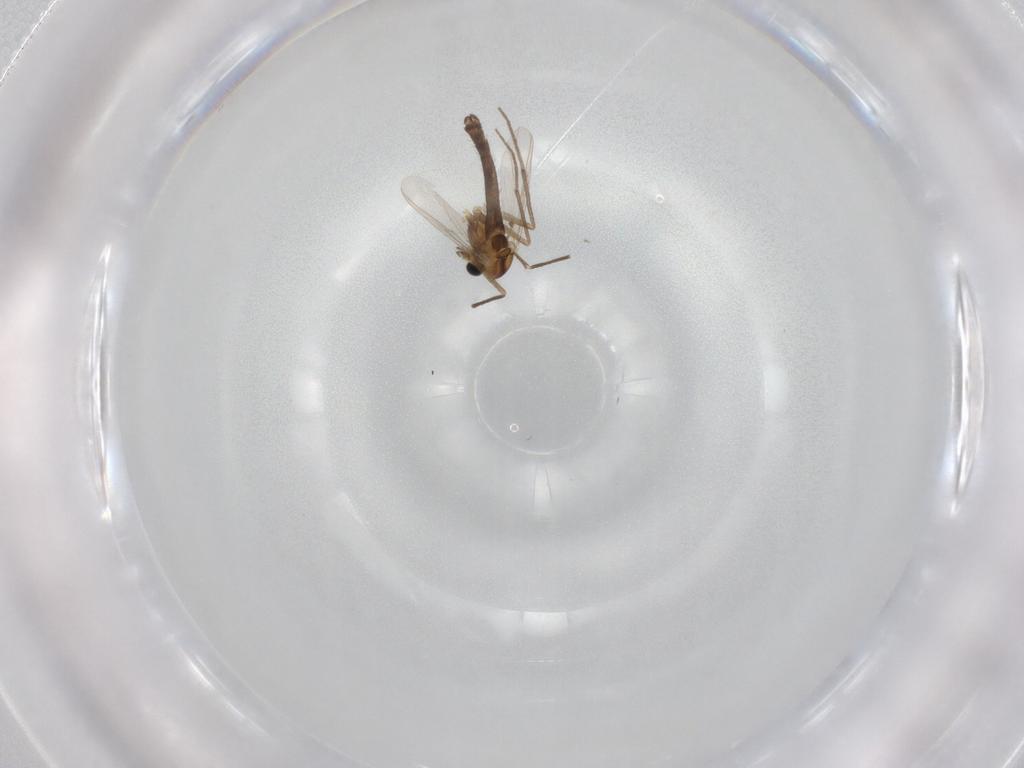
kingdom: Animalia
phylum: Arthropoda
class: Insecta
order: Diptera
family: Chironomidae
